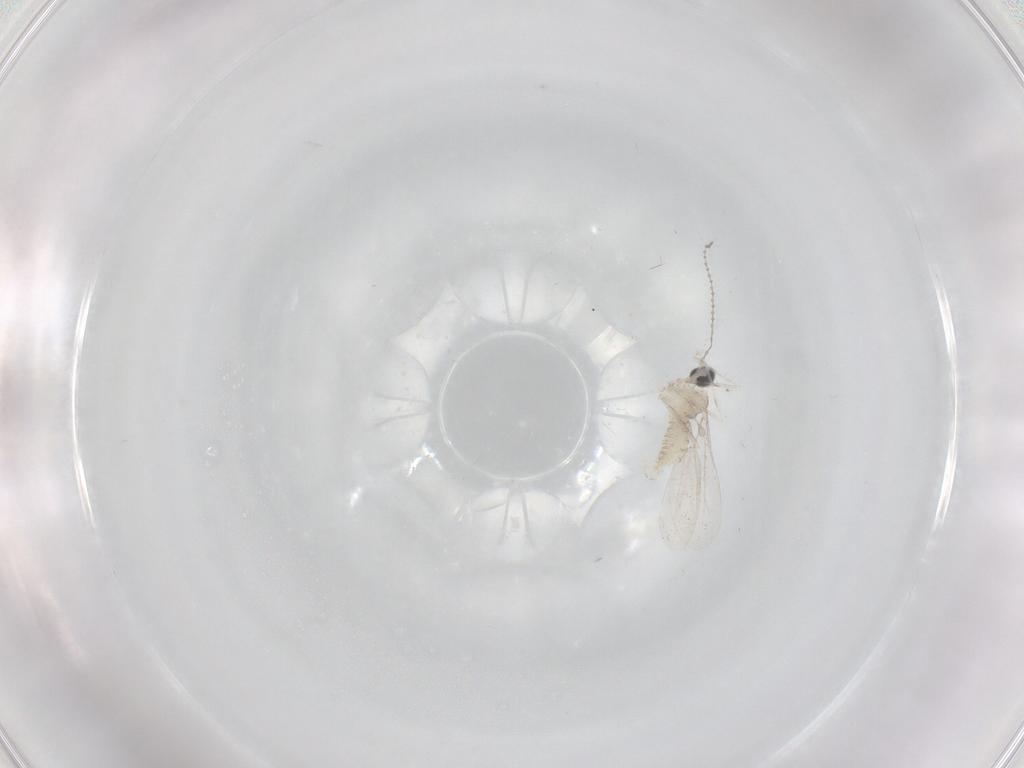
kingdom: Animalia
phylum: Arthropoda
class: Insecta
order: Diptera
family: Cecidomyiidae
